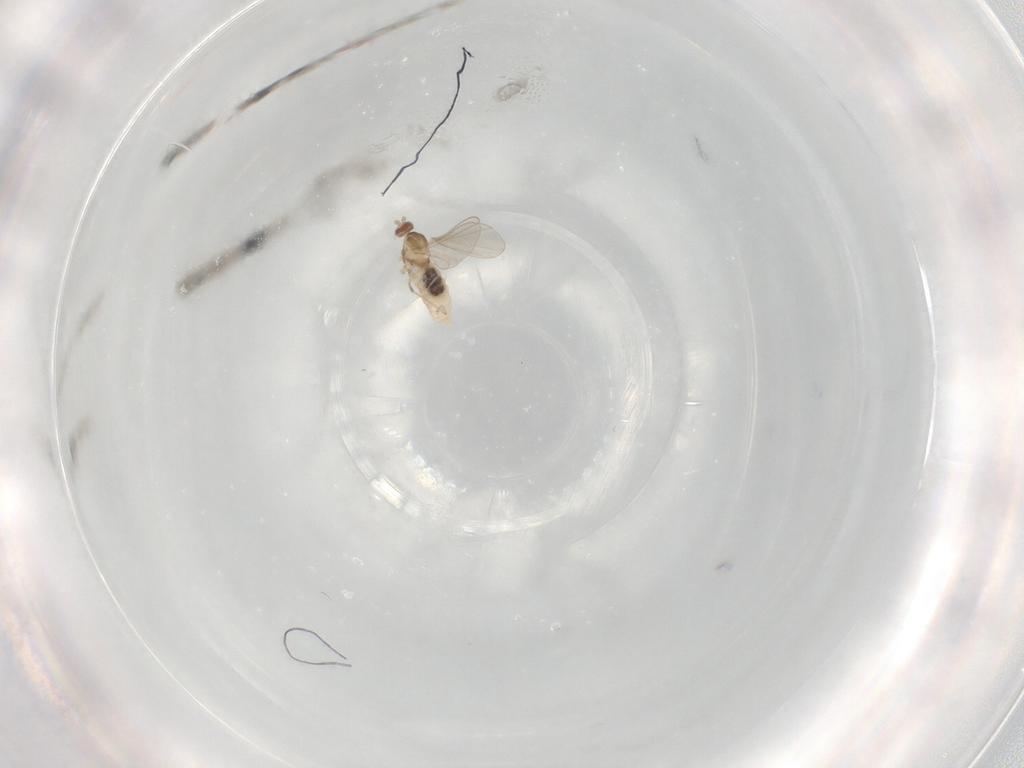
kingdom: Animalia
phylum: Arthropoda
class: Insecta
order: Diptera
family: Cecidomyiidae
